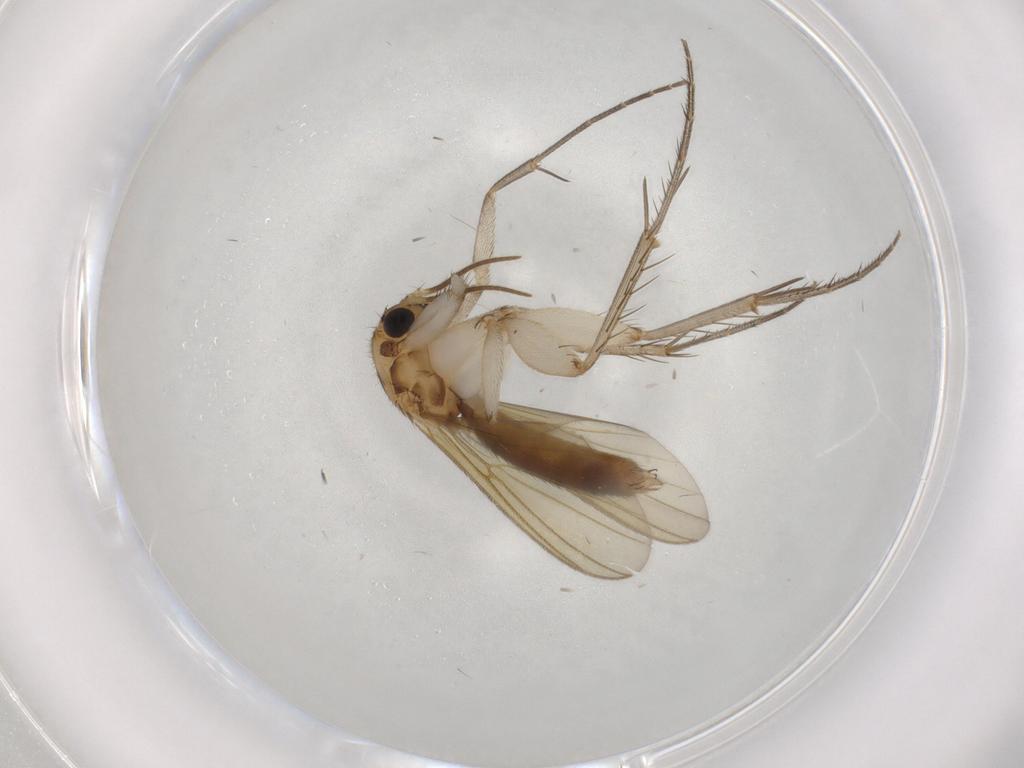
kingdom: Animalia
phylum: Arthropoda
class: Insecta
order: Diptera
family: Mycetophilidae
